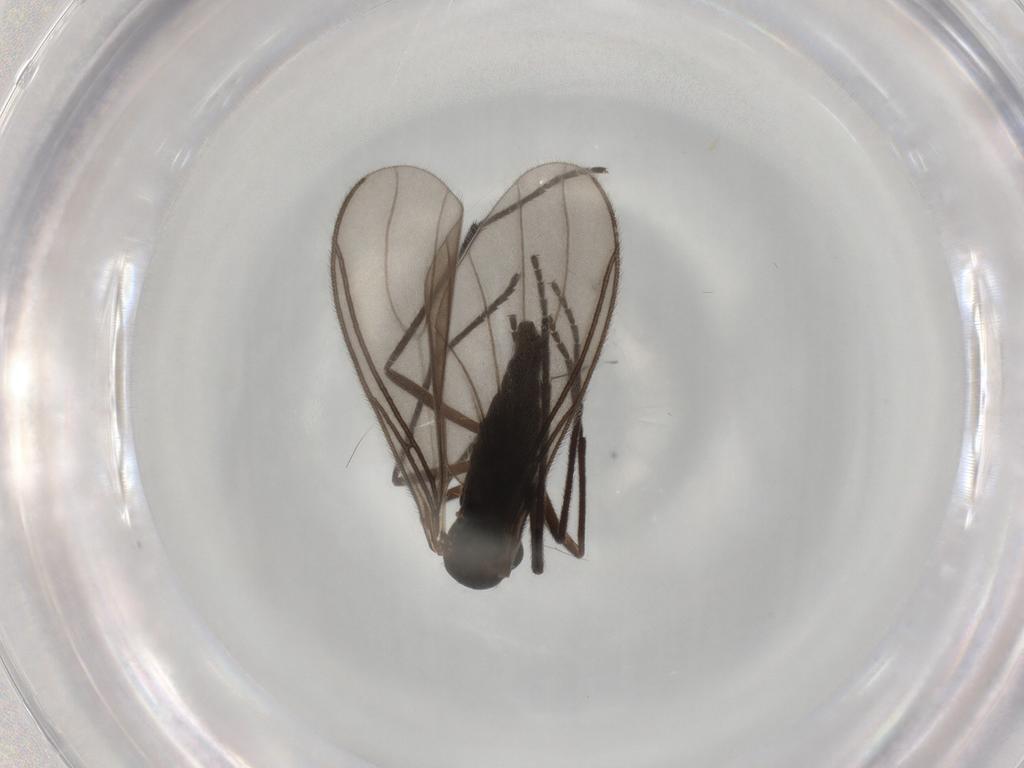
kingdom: Animalia
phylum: Arthropoda
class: Insecta
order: Diptera
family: Sciaridae
